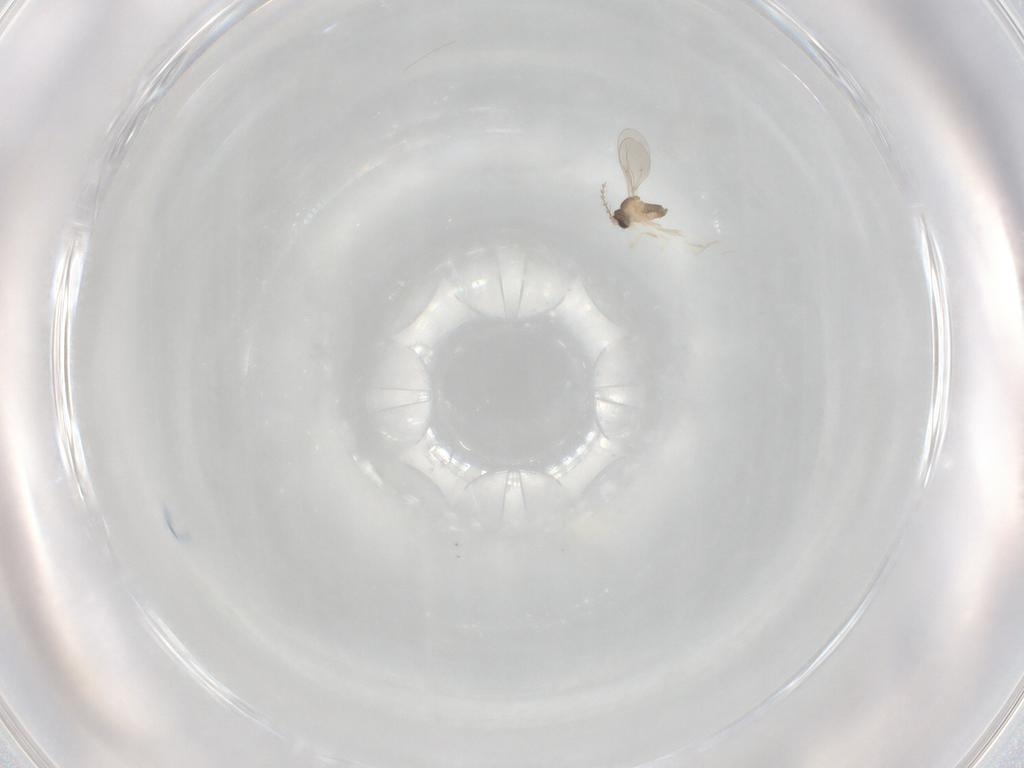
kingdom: Animalia
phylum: Arthropoda
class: Insecta
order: Diptera
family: Cecidomyiidae
